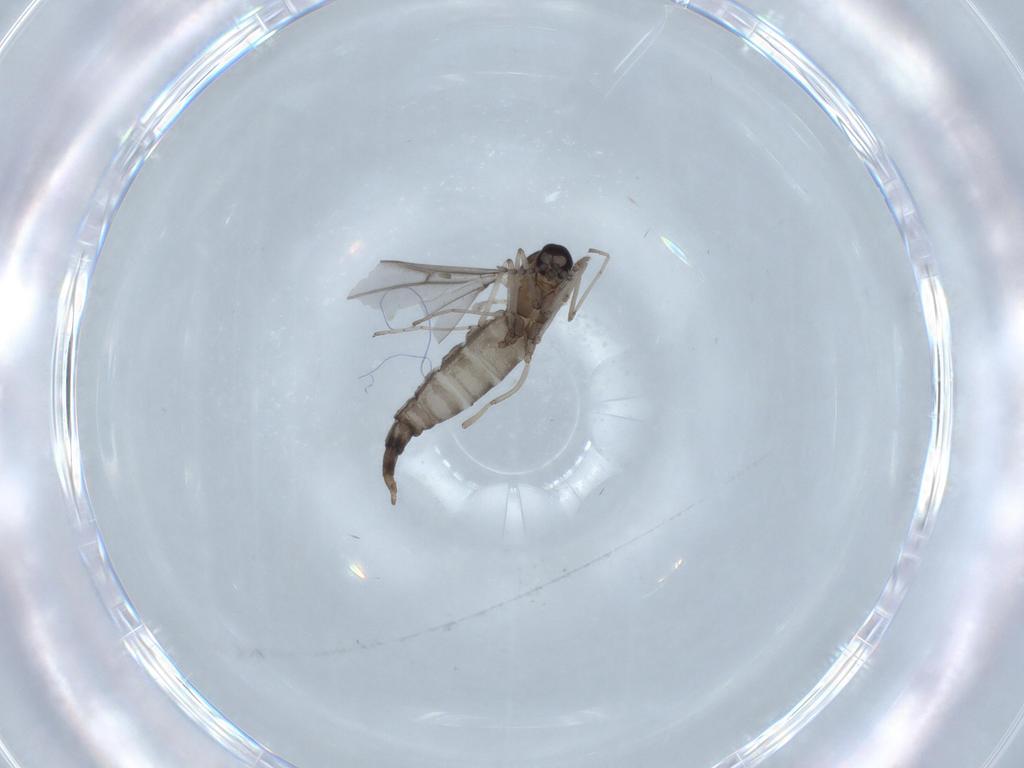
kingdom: Animalia
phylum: Arthropoda
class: Insecta
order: Diptera
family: Cecidomyiidae
